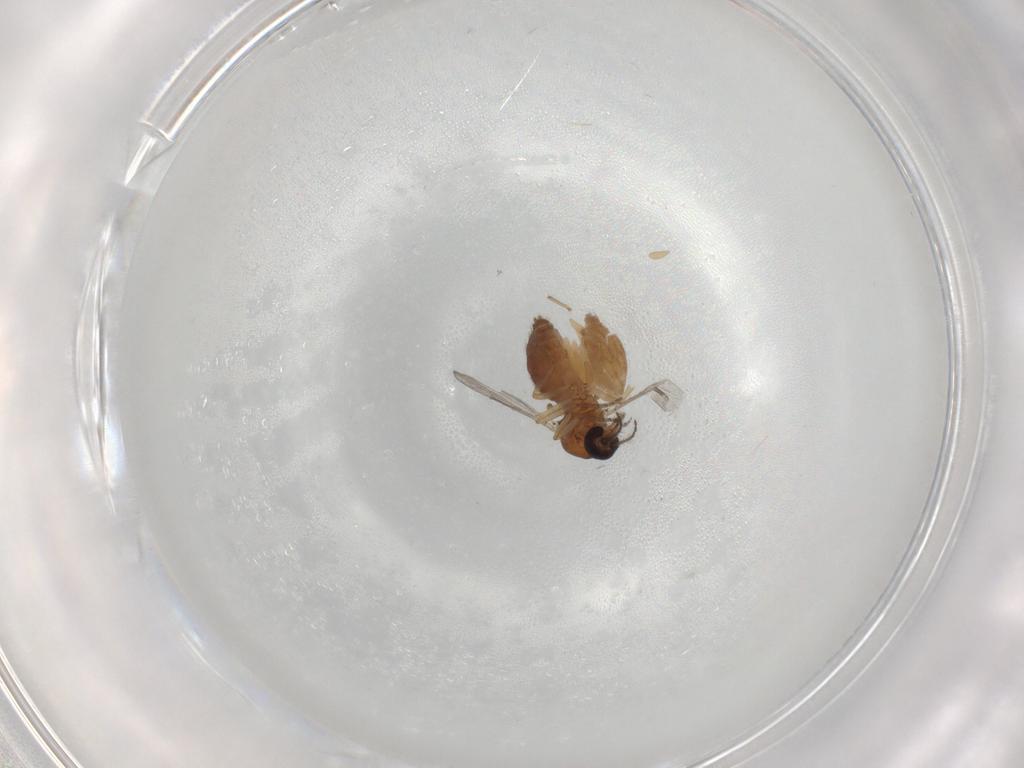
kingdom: Animalia
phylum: Arthropoda
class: Insecta
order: Diptera
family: Ceratopogonidae
